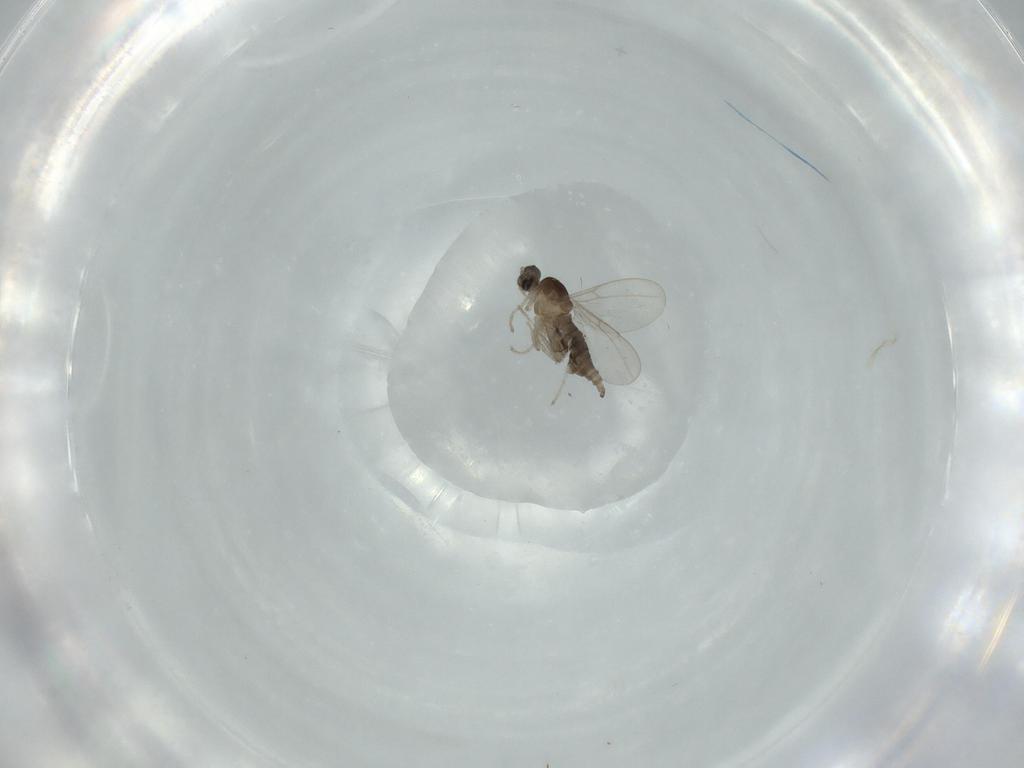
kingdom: Animalia
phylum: Arthropoda
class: Insecta
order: Diptera
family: Cecidomyiidae
